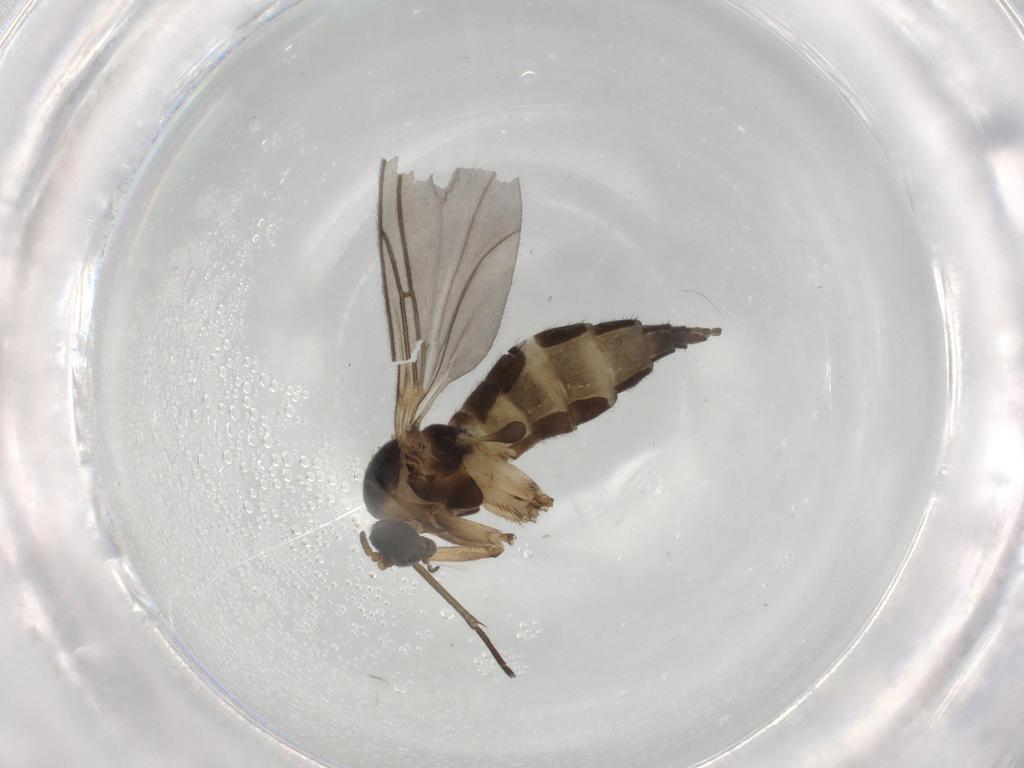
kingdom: Animalia
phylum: Arthropoda
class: Insecta
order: Diptera
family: Sciaridae
